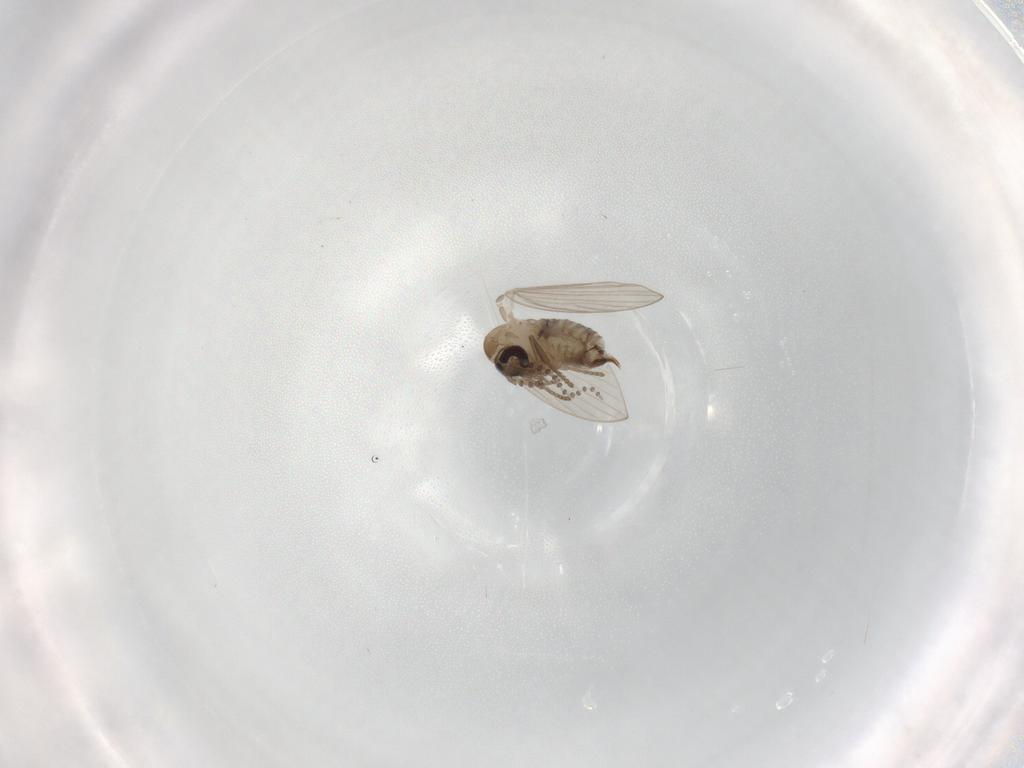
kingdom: Animalia
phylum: Arthropoda
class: Insecta
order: Diptera
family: Psychodidae
